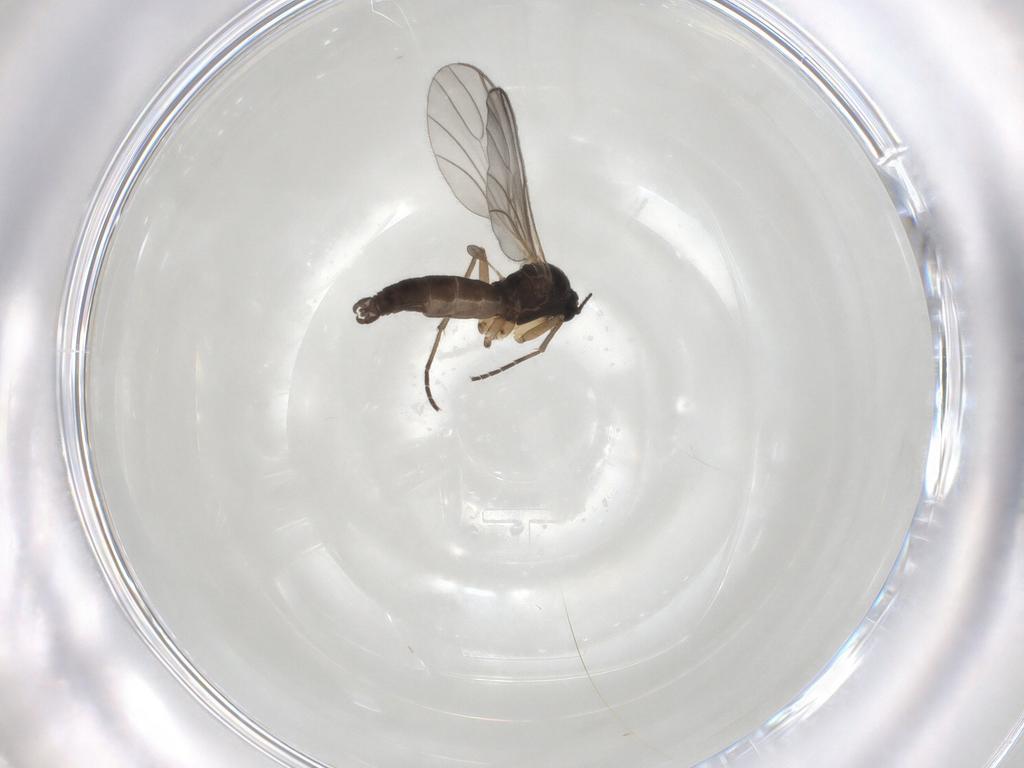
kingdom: Animalia
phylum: Arthropoda
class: Insecta
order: Diptera
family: Sciaridae
